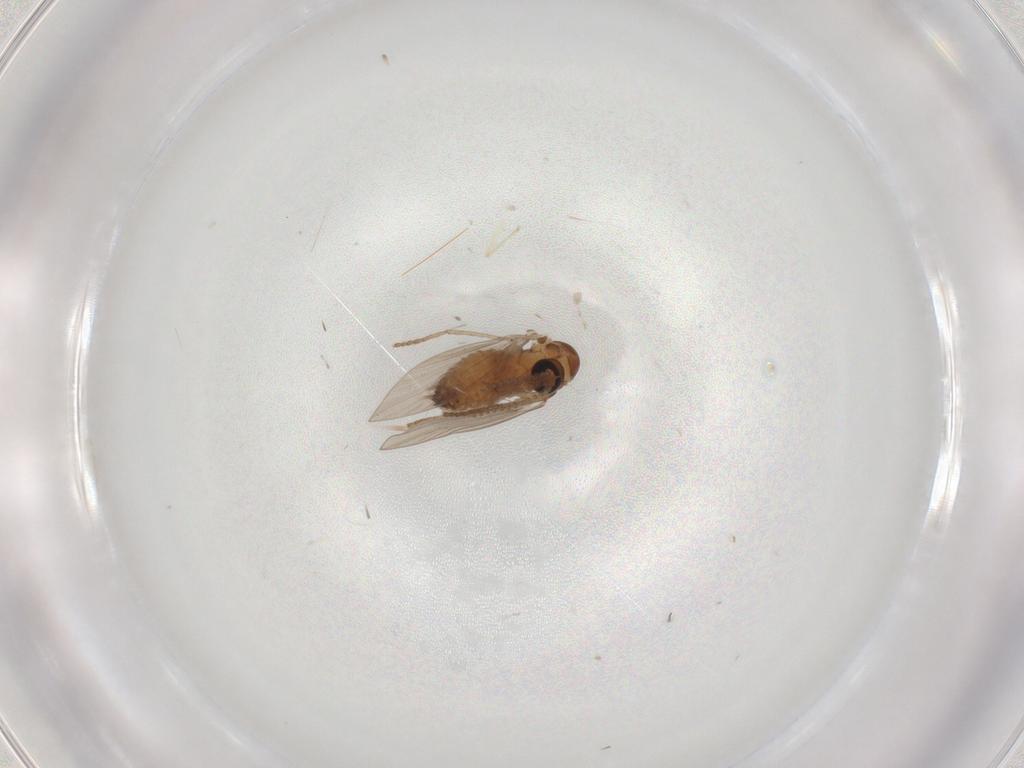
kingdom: Animalia
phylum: Arthropoda
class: Insecta
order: Diptera
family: Psychodidae
